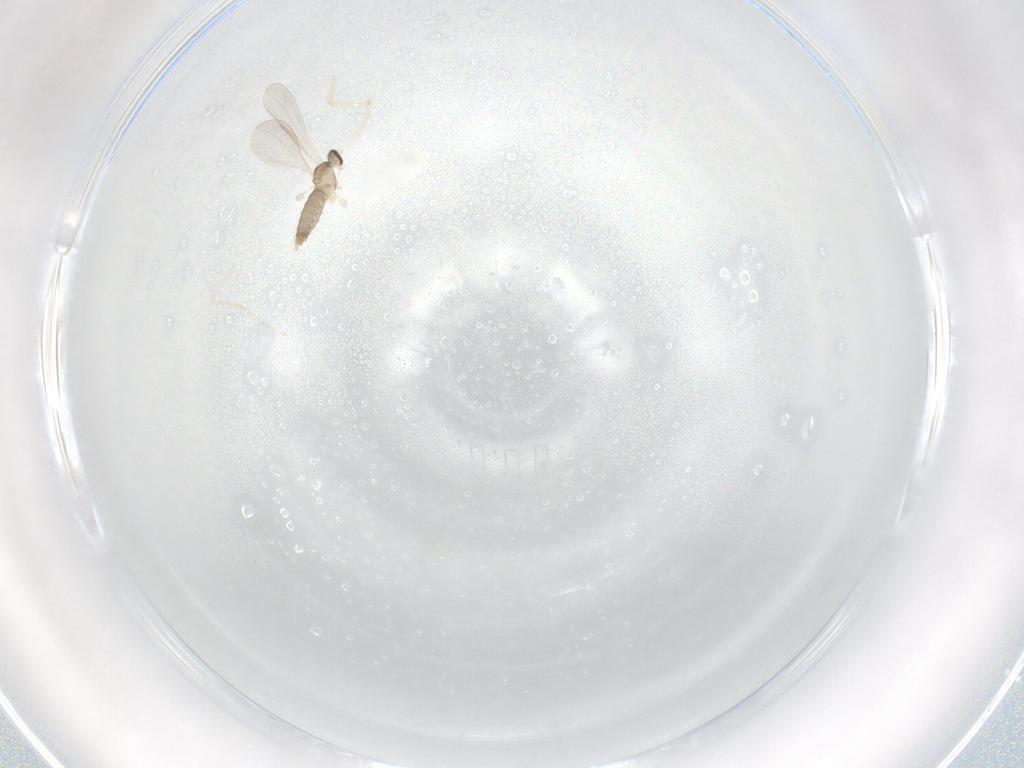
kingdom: Animalia
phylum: Arthropoda
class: Insecta
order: Diptera
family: Cecidomyiidae
